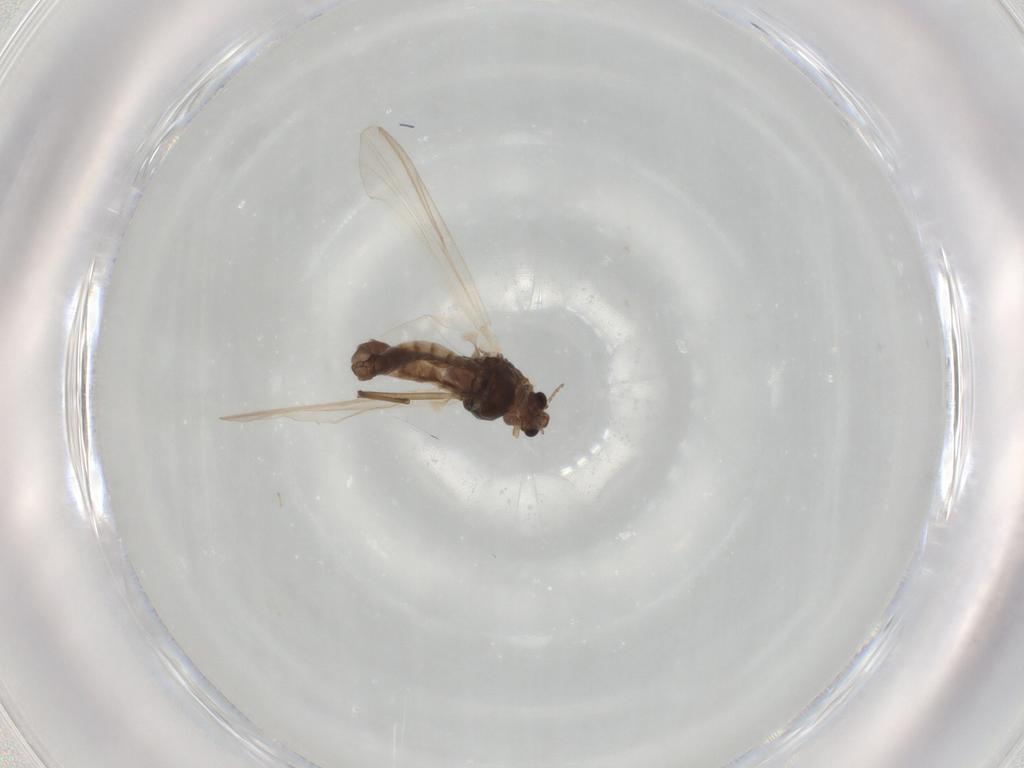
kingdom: Animalia
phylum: Arthropoda
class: Insecta
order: Diptera
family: Chironomidae
